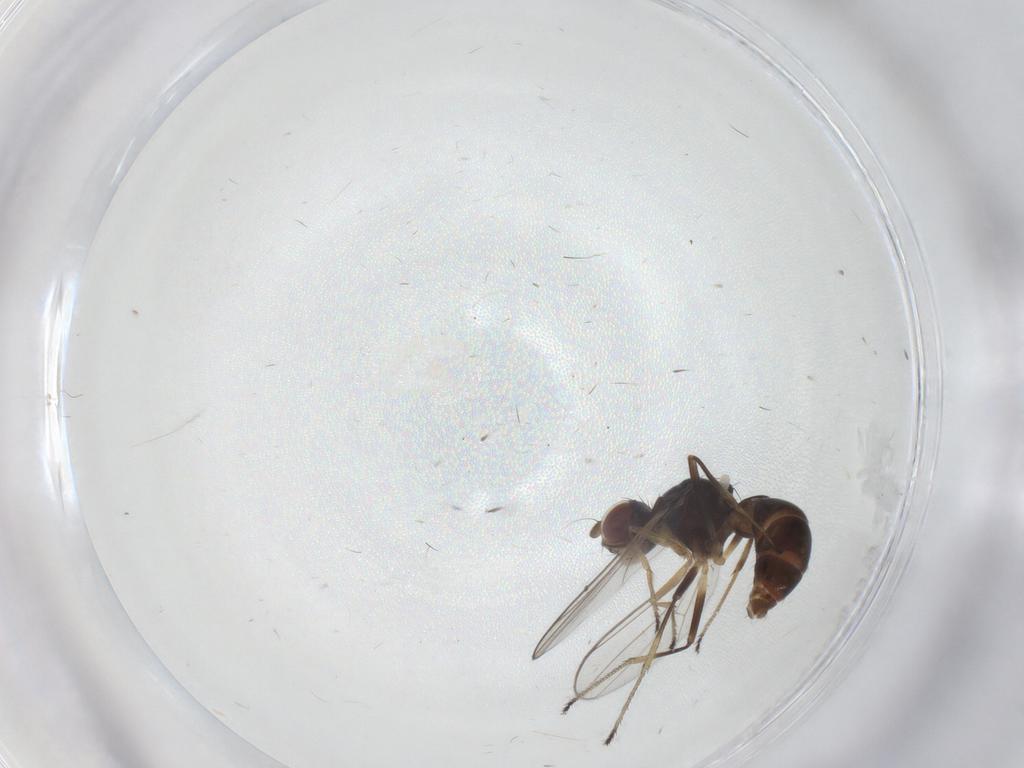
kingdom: Animalia
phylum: Arthropoda
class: Insecta
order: Diptera
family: Sepsidae
